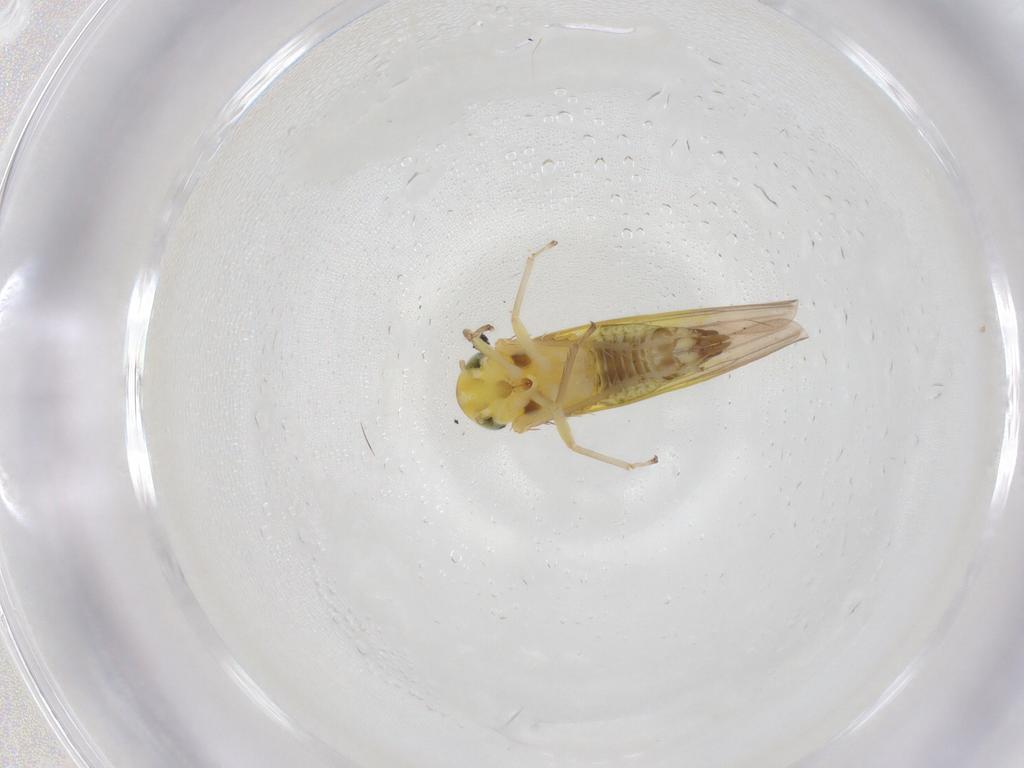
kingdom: Animalia
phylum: Arthropoda
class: Insecta
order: Hemiptera
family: Cicadellidae
